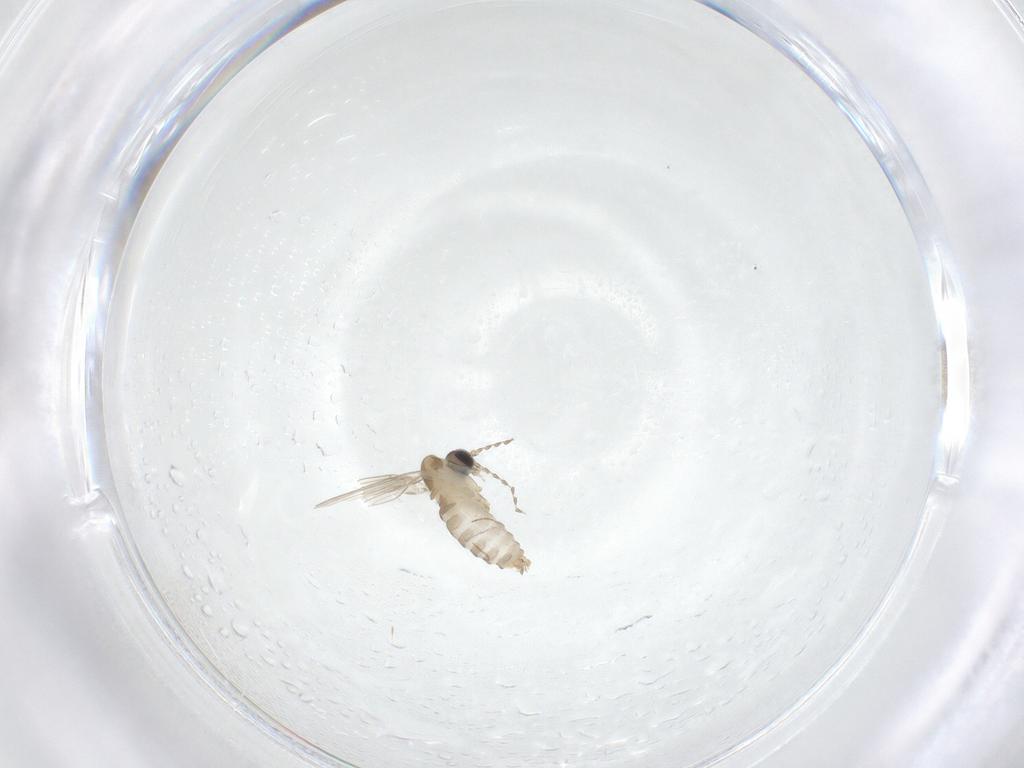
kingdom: Animalia
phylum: Arthropoda
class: Insecta
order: Diptera
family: Psychodidae
